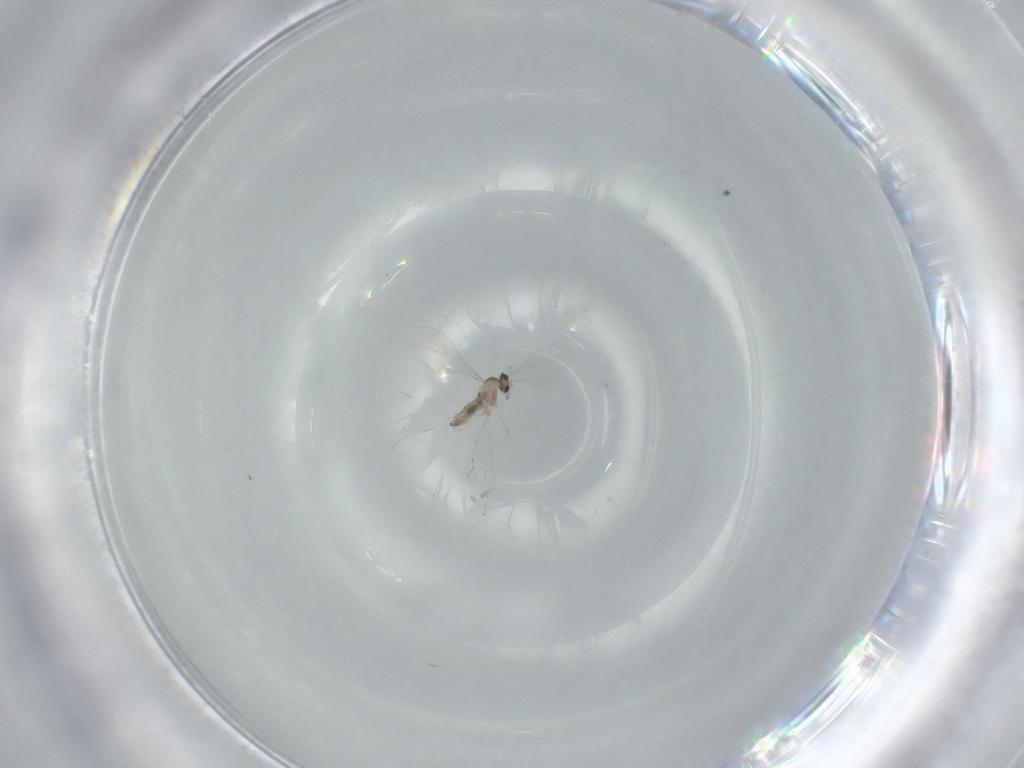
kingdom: Animalia
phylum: Arthropoda
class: Insecta
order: Diptera
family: Cecidomyiidae
